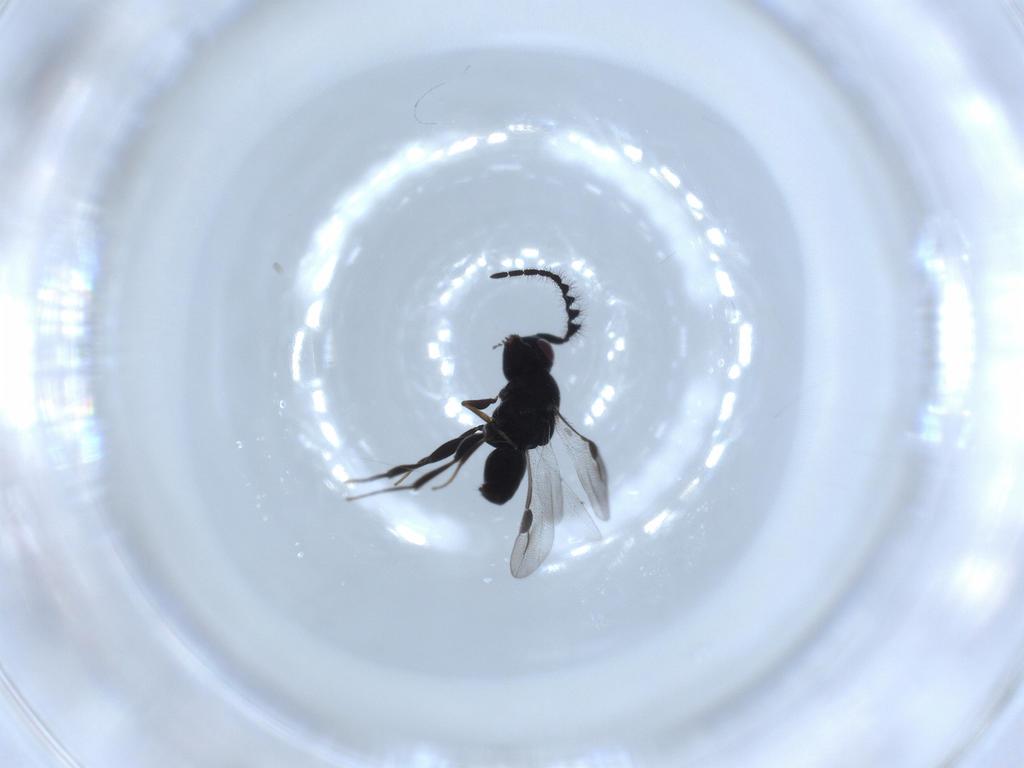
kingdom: Animalia
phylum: Arthropoda
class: Insecta
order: Hymenoptera
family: Megaspilidae
